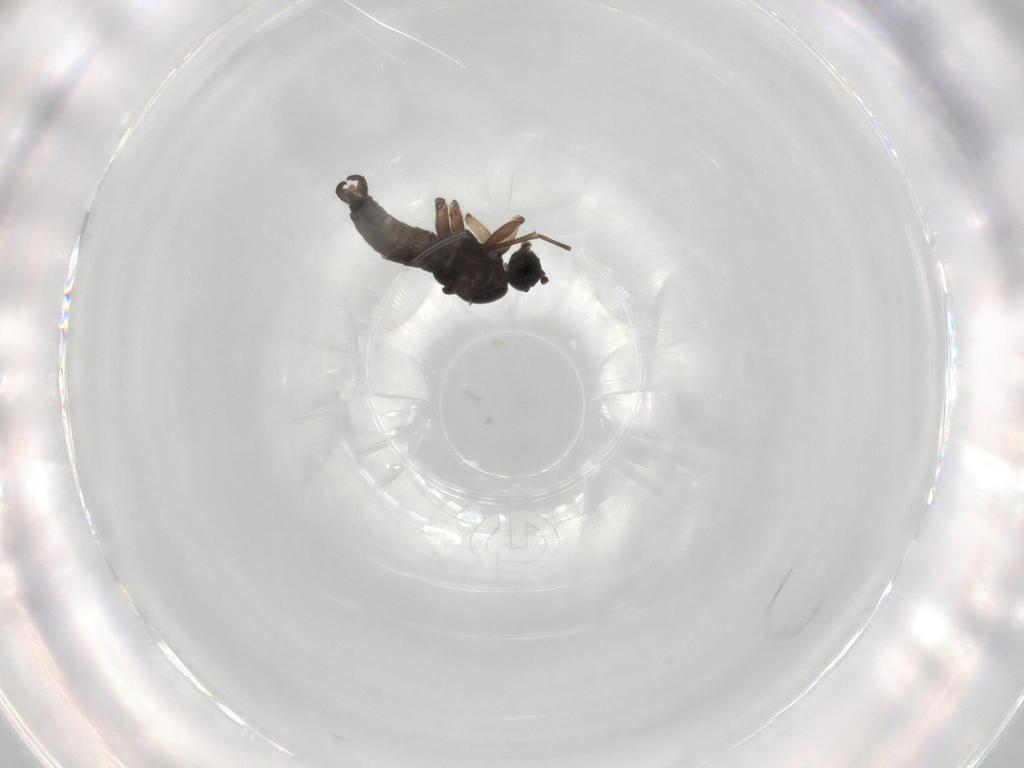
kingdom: Animalia
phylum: Arthropoda
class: Insecta
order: Diptera
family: Sciaridae
